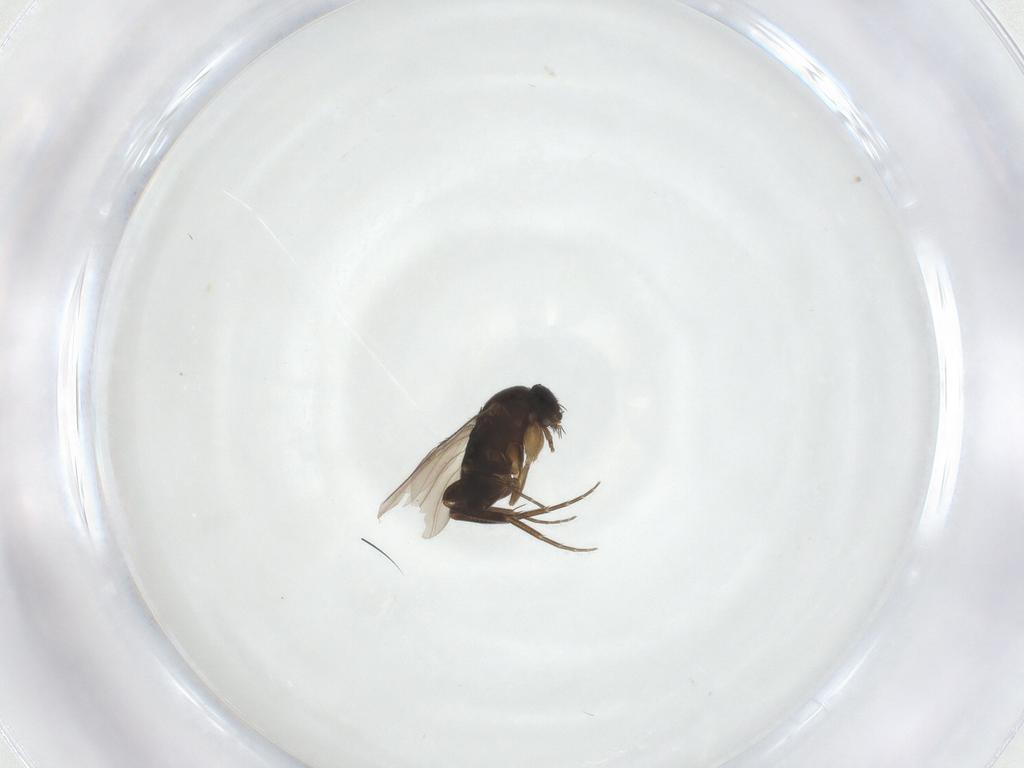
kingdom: Animalia
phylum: Arthropoda
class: Insecta
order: Diptera
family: Phoridae
